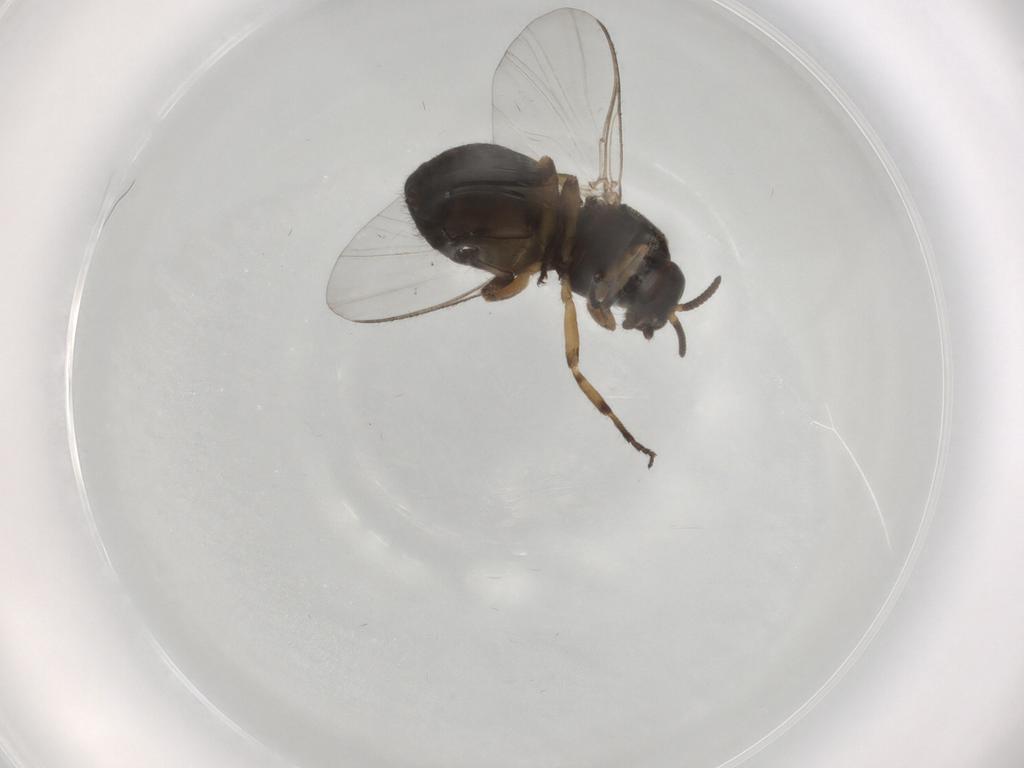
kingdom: Animalia
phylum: Arthropoda
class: Insecta
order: Diptera
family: Simuliidae
